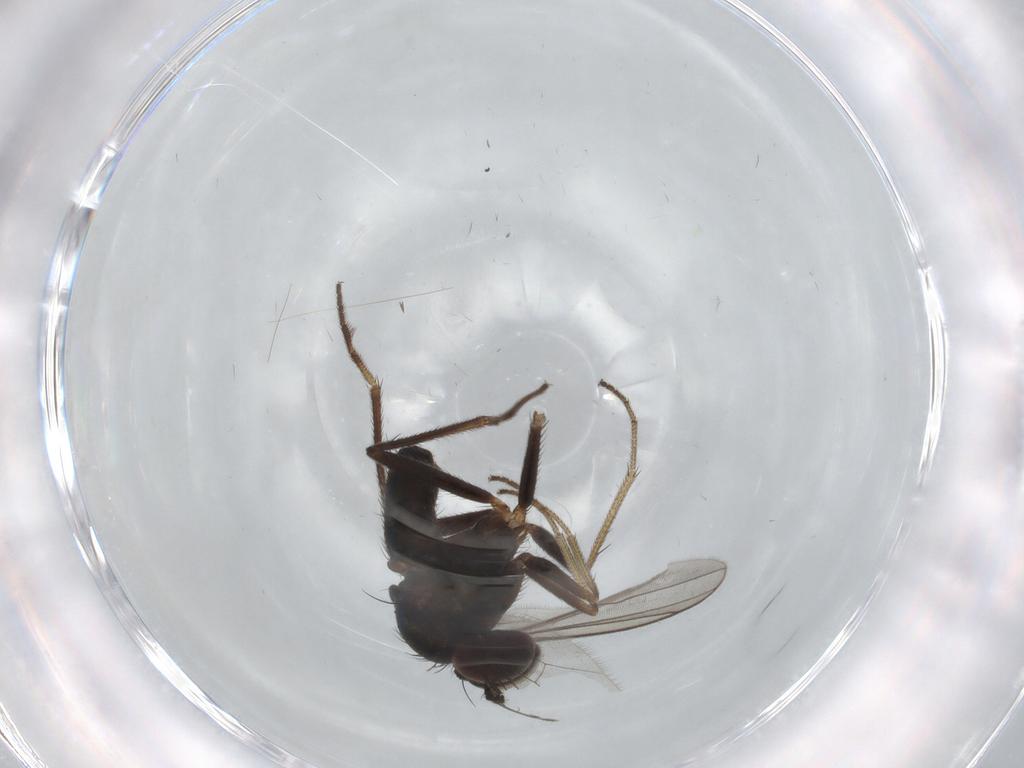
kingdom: Animalia
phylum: Arthropoda
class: Insecta
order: Diptera
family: Dolichopodidae
